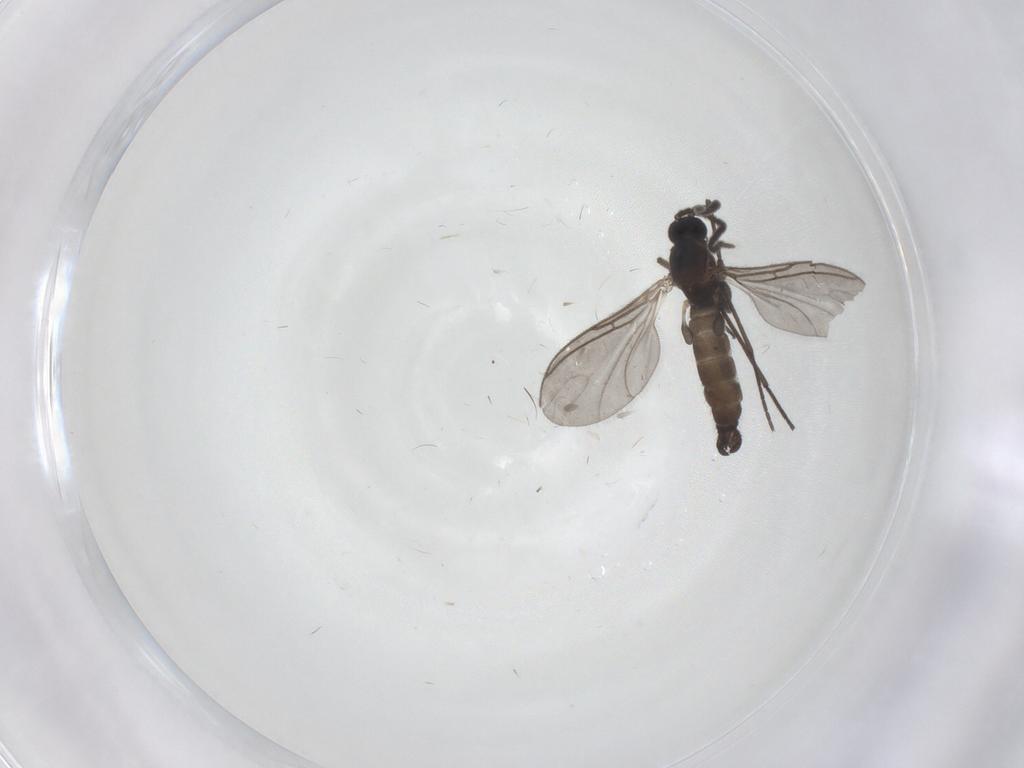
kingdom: Animalia
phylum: Arthropoda
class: Insecta
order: Diptera
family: Sciaridae
